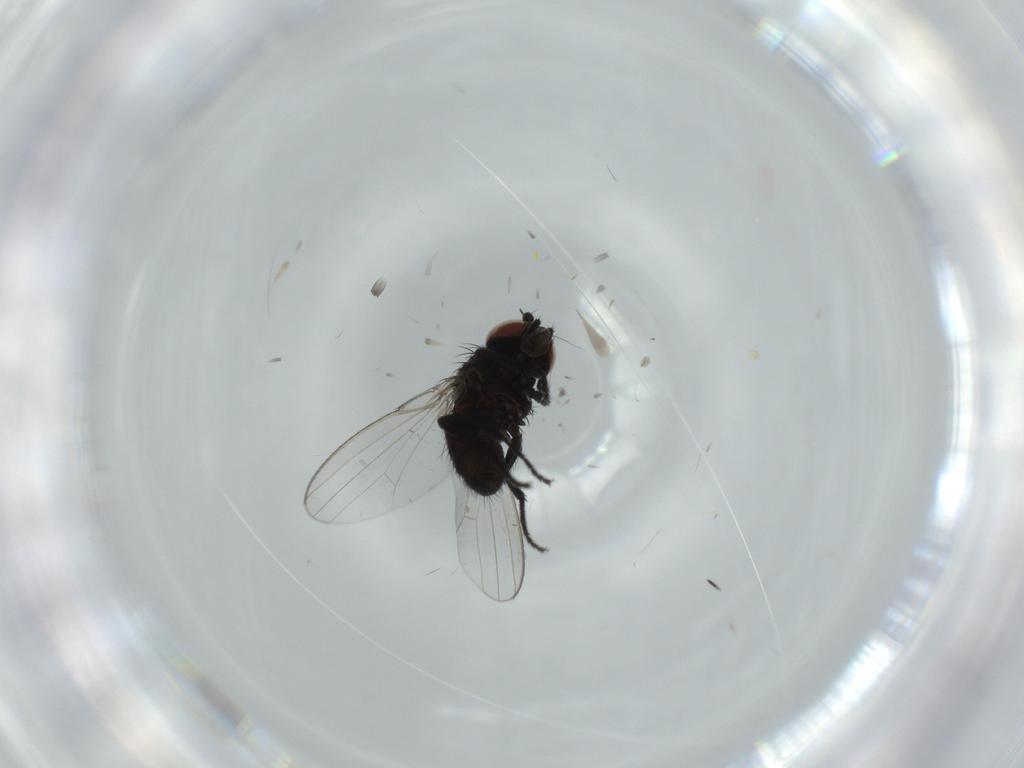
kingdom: Animalia
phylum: Arthropoda
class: Insecta
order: Diptera
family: Milichiidae
